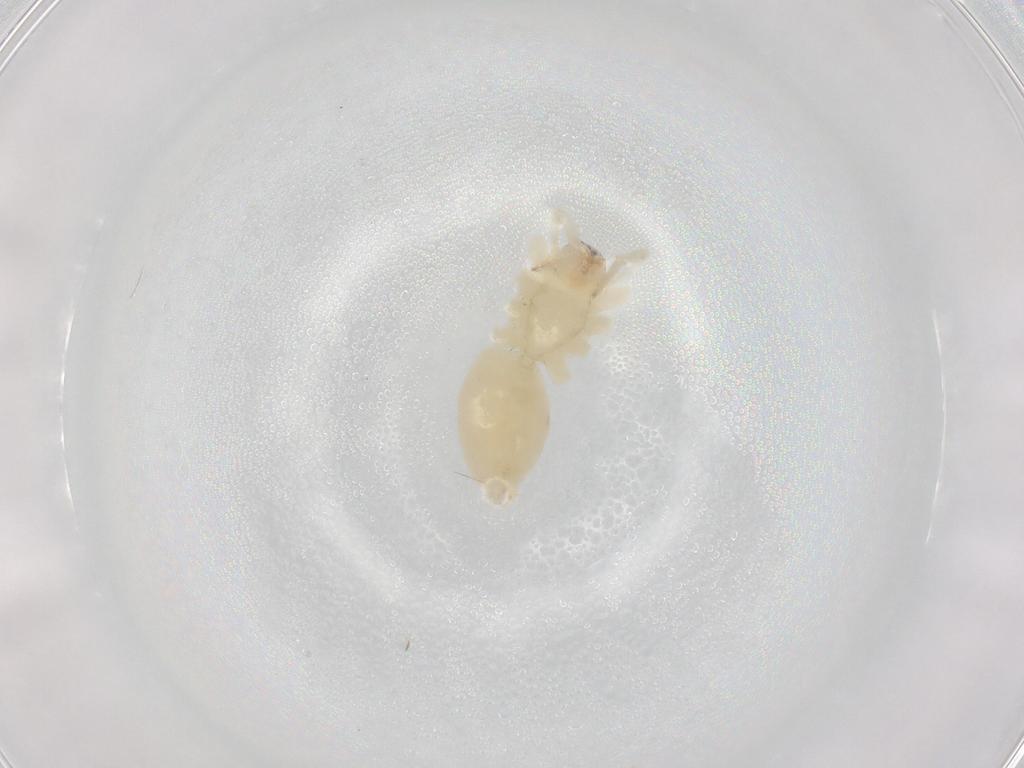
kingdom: Animalia
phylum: Arthropoda
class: Arachnida
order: Araneae
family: Anyphaenidae
